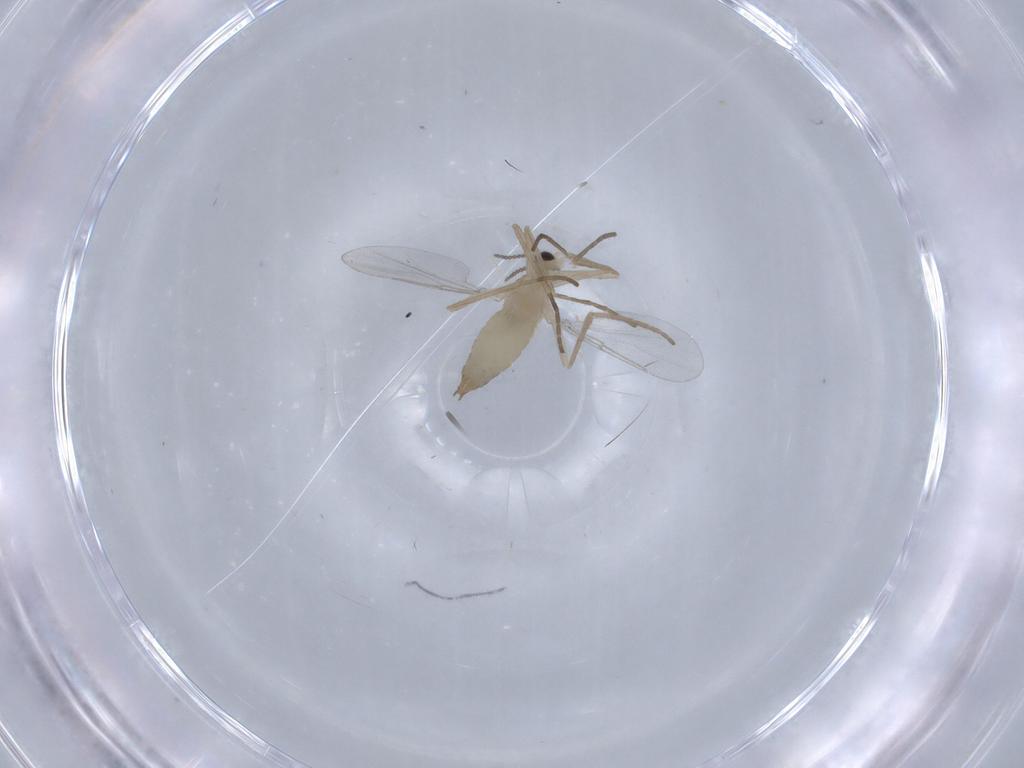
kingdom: Animalia
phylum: Arthropoda
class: Insecta
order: Diptera
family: Cecidomyiidae
